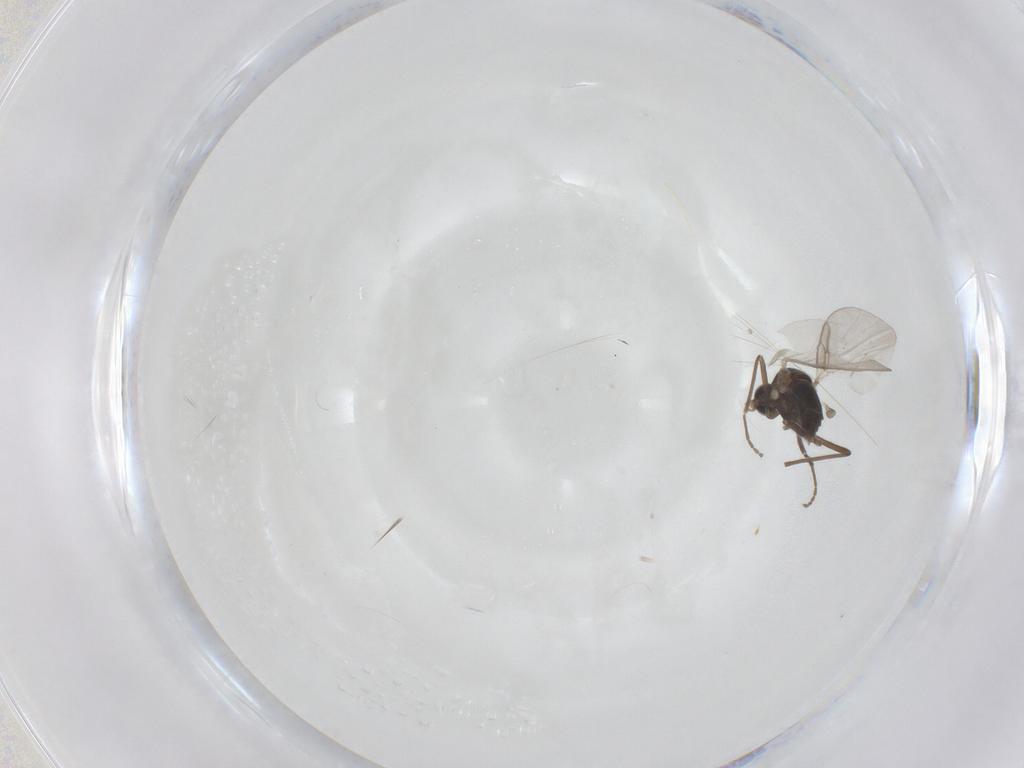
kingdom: Animalia
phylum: Arthropoda
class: Insecta
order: Diptera
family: Cecidomyiidae
